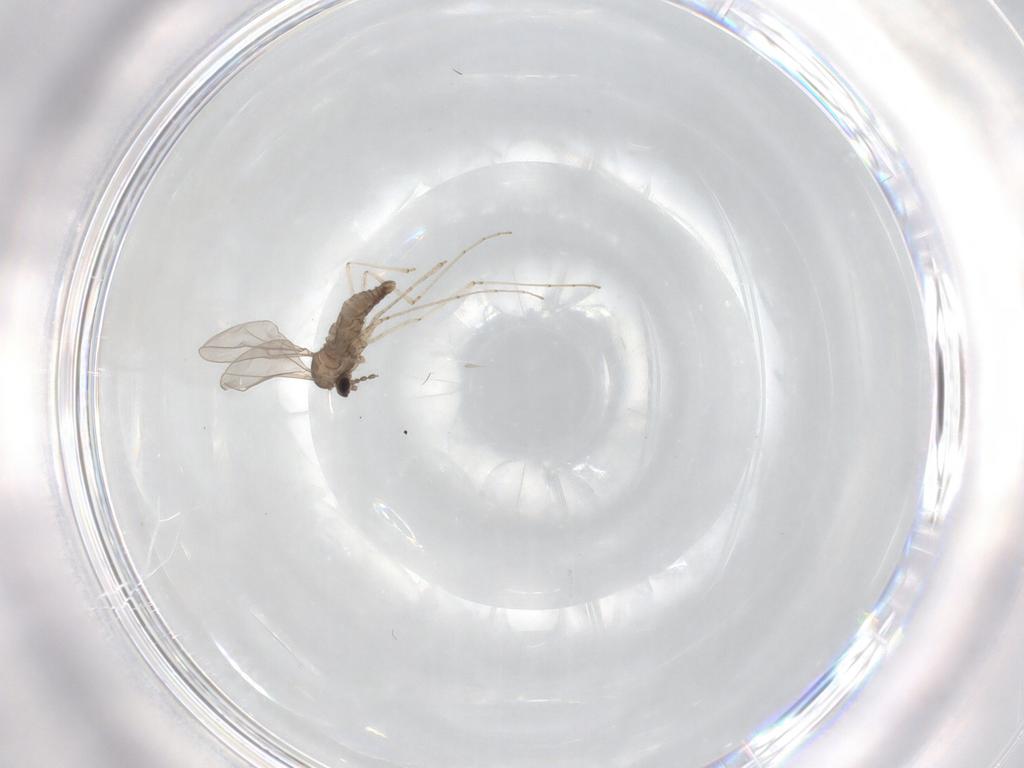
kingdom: Animalia
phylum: Arthropoda
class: Insecta
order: Diptera
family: Cecidomyiidae
